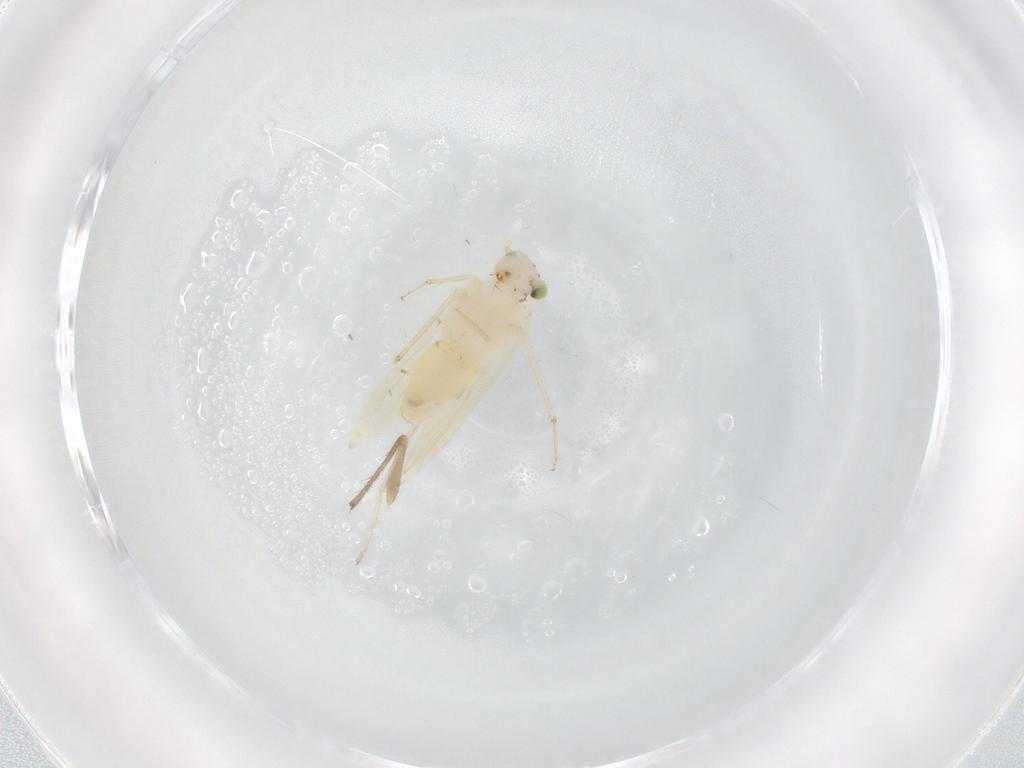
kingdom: Animalia
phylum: Arthropoda
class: Insecta
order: Psocodea
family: Lepidopsocidae
